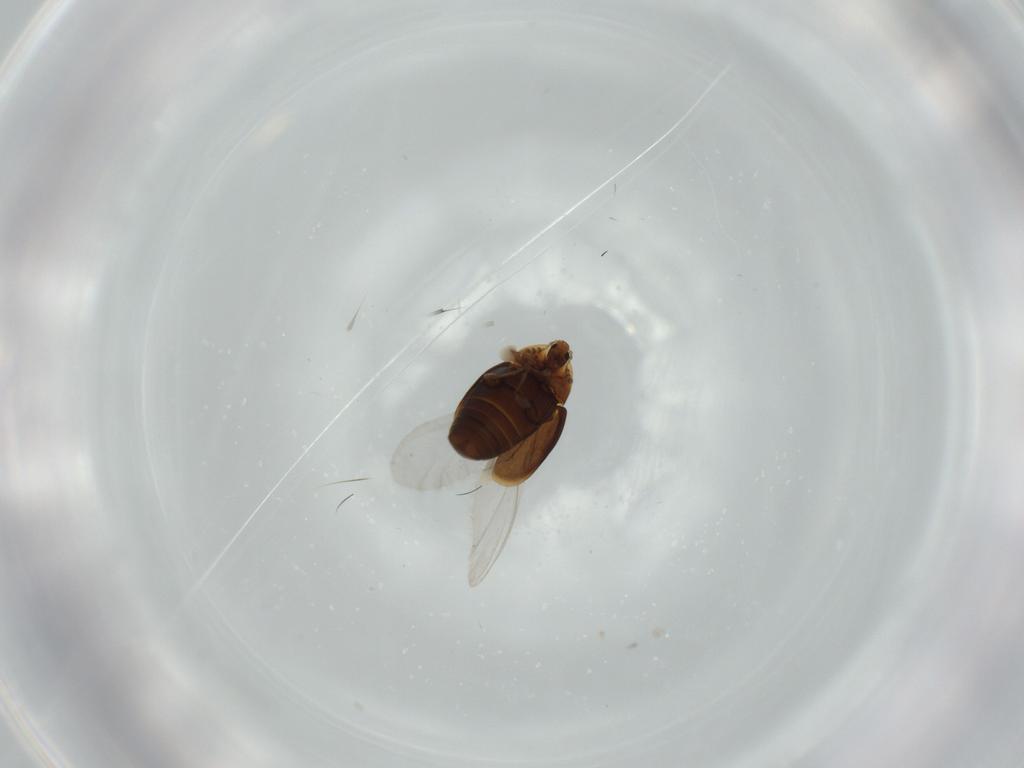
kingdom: Animalia
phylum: Arthropoda
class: Insecta
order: Coleoptera
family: Corylophidae
